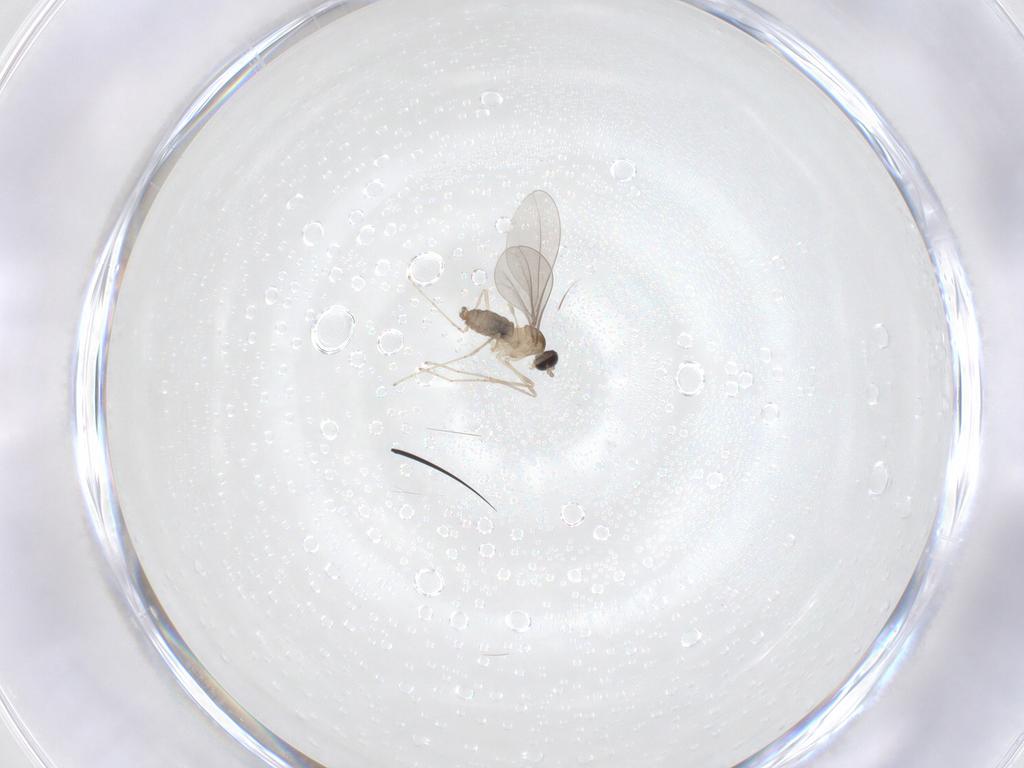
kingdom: Animalia
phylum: Arthropoda
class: Insecta
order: Diptera
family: Cecidomyiidae
